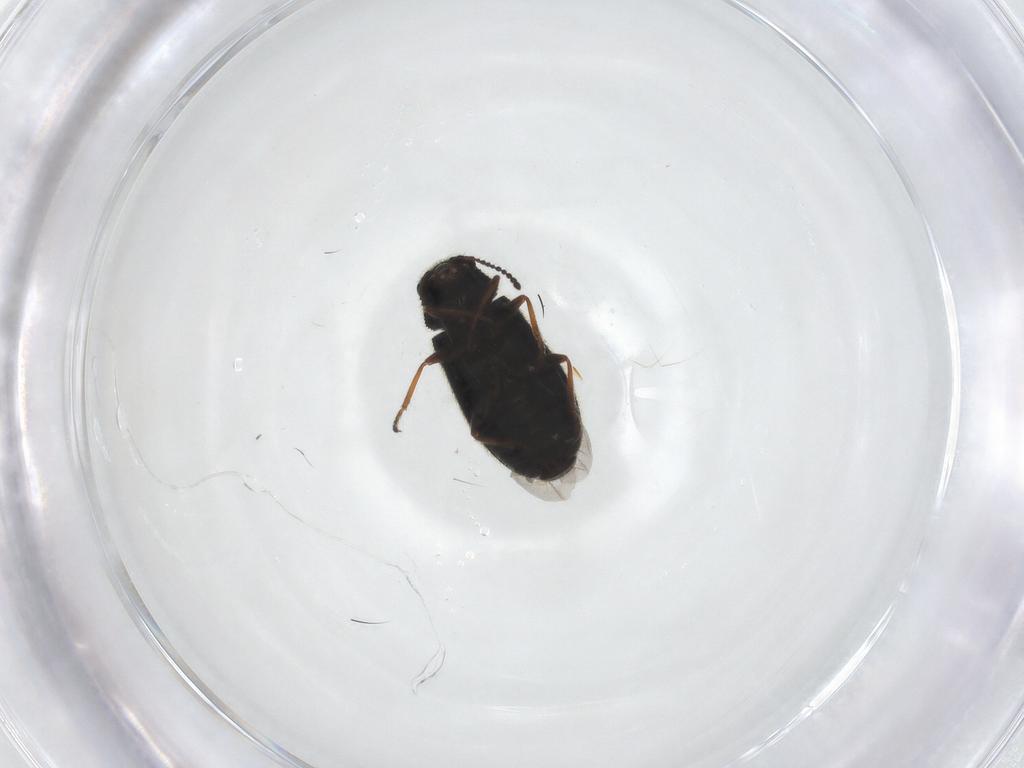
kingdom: Animalia
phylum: Arthropoda
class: Insecta
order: Coleoptera
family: Melyridae
